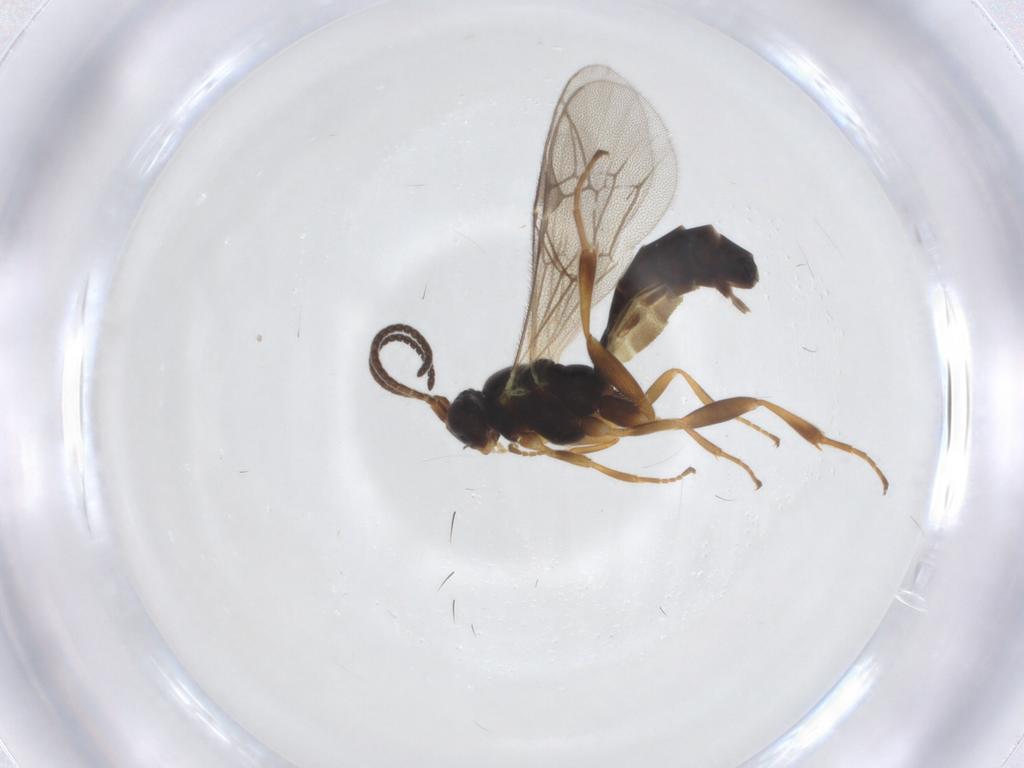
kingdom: Animalia
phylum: Arthropoda
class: Insecta
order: Hymenoptera
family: Ichneumonidae
